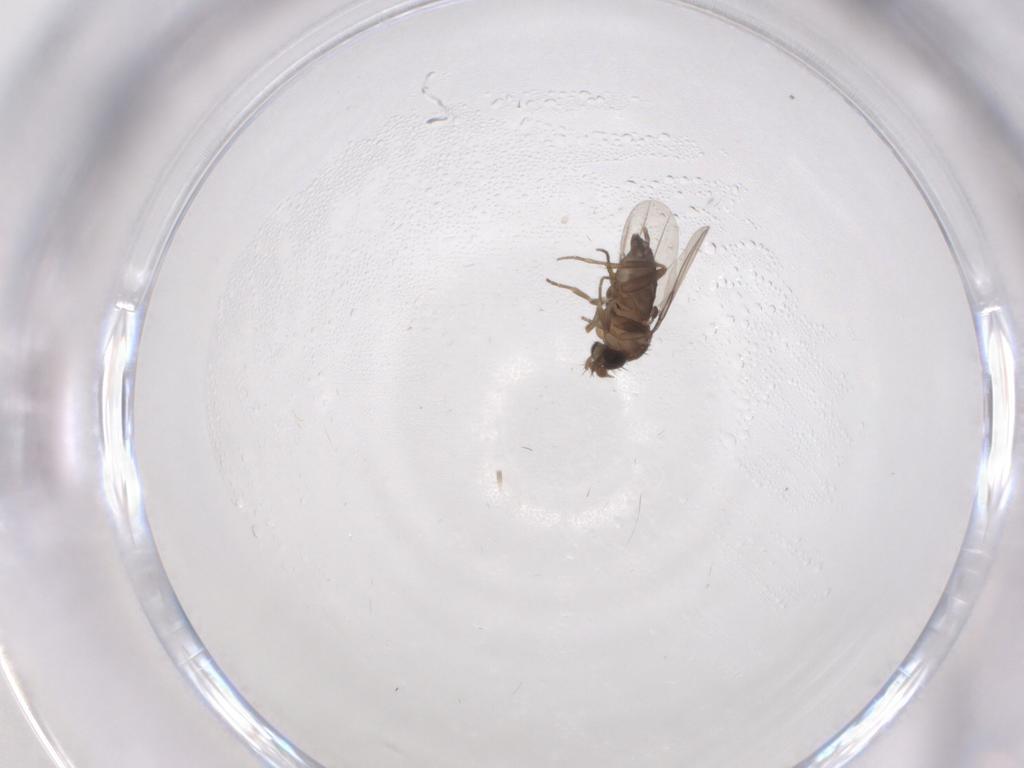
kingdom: Animalia
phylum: Arthropoda
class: Insecta
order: Diptera
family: Phoridae
